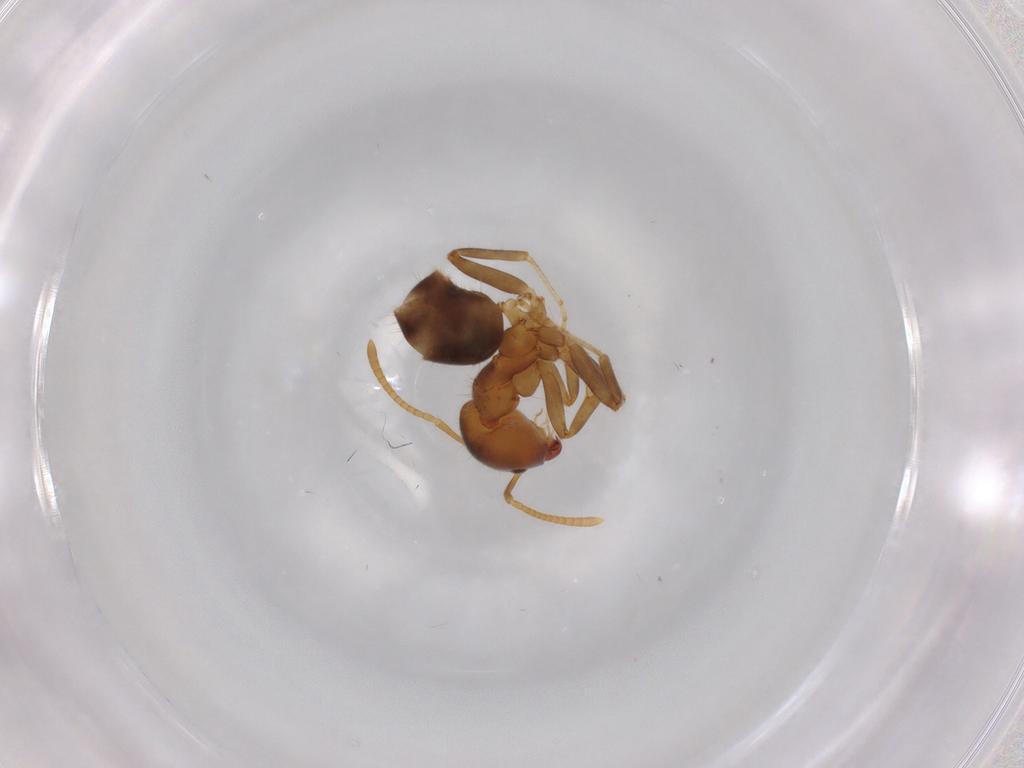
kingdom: Animalia
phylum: Arthropoda
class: Insecta
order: Hymenoptera
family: Formicidae
